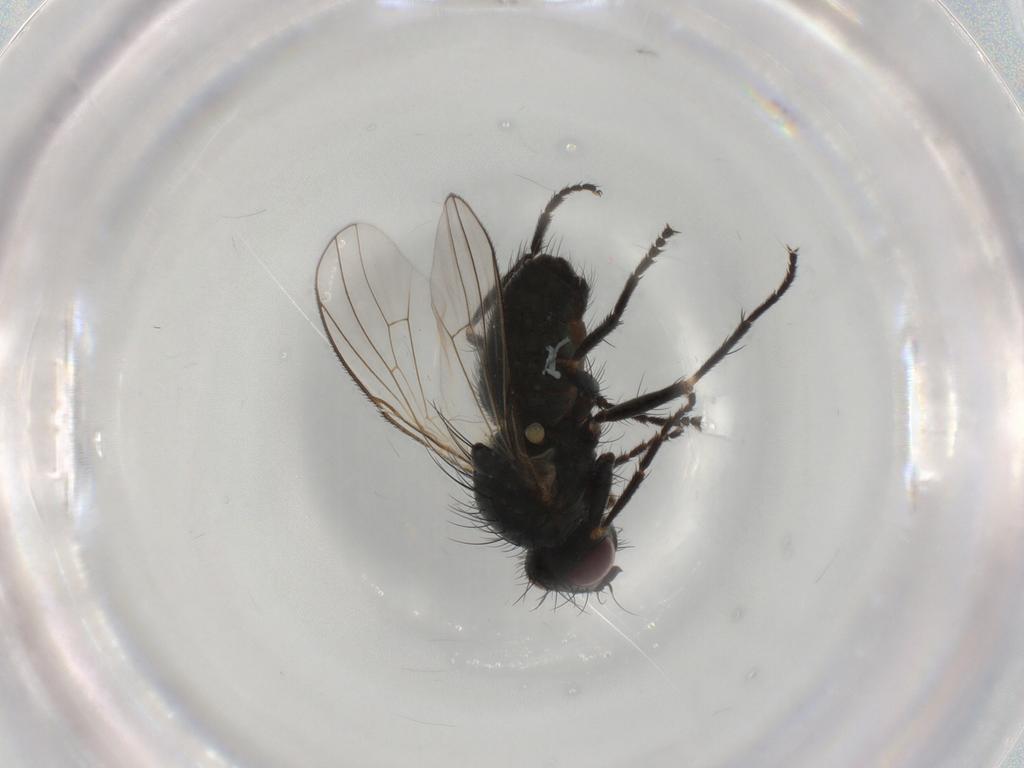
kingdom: Animalia
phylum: Arthropoda
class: Insecta
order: Diptera
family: Muscidae
